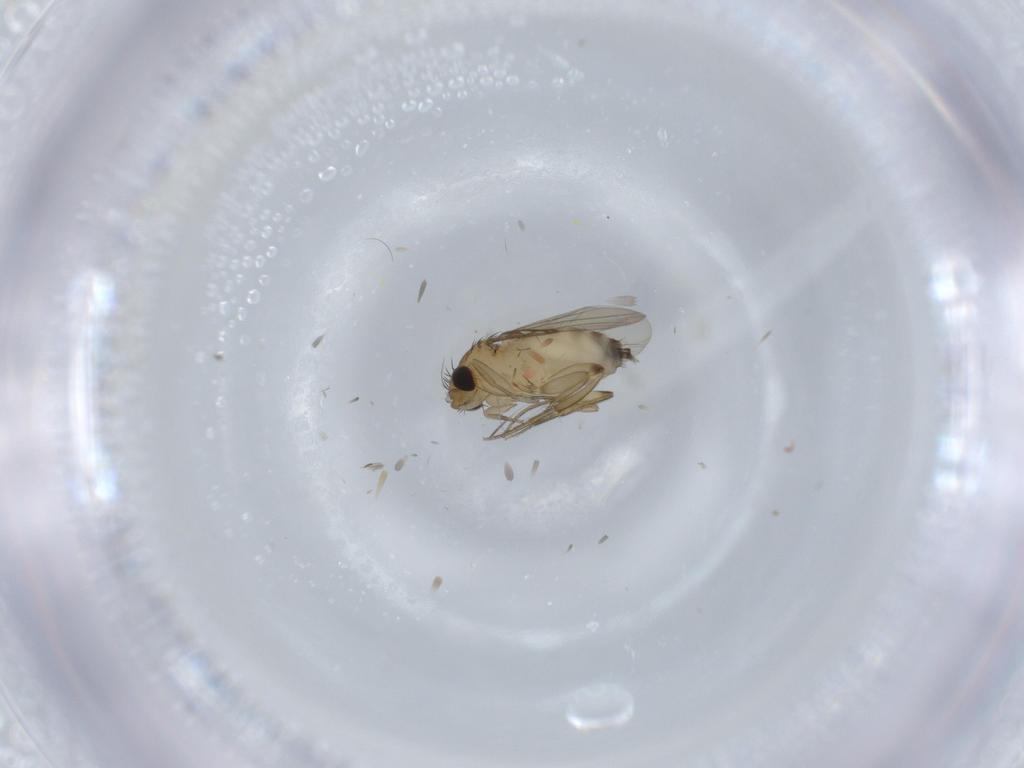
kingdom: Animalia
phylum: Arthropoda
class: Insecta
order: Diptera
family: Phoridae
